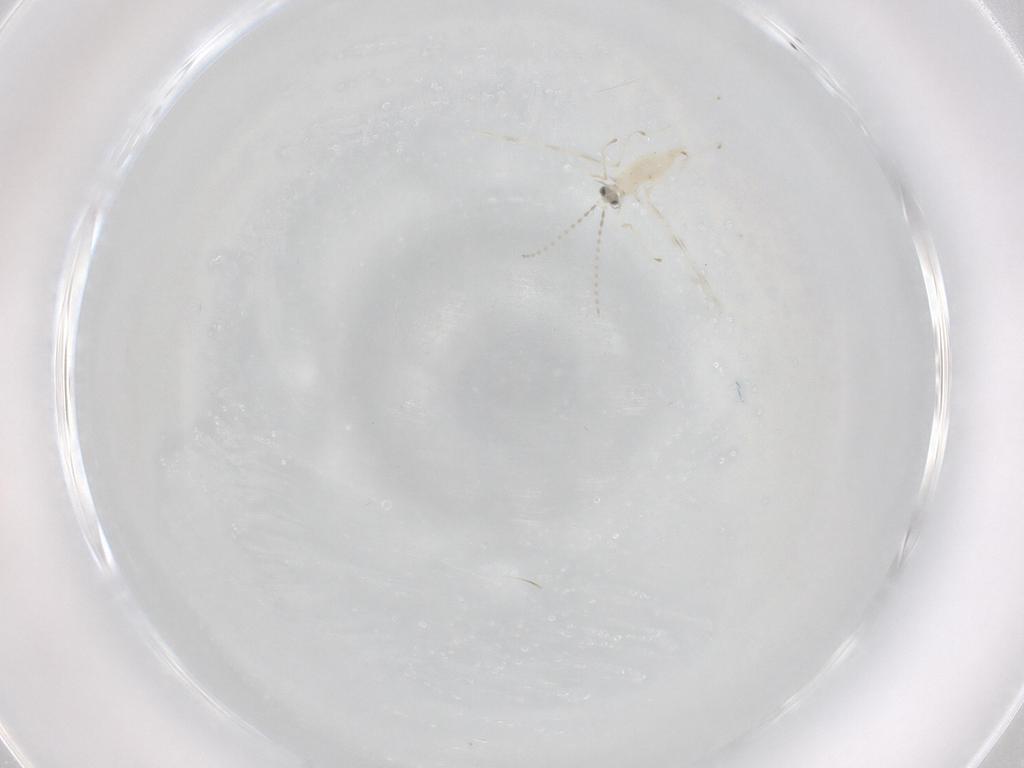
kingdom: Animalia
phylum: Arthropoda
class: Insecta
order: Diptera
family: Cecidomyiidae
